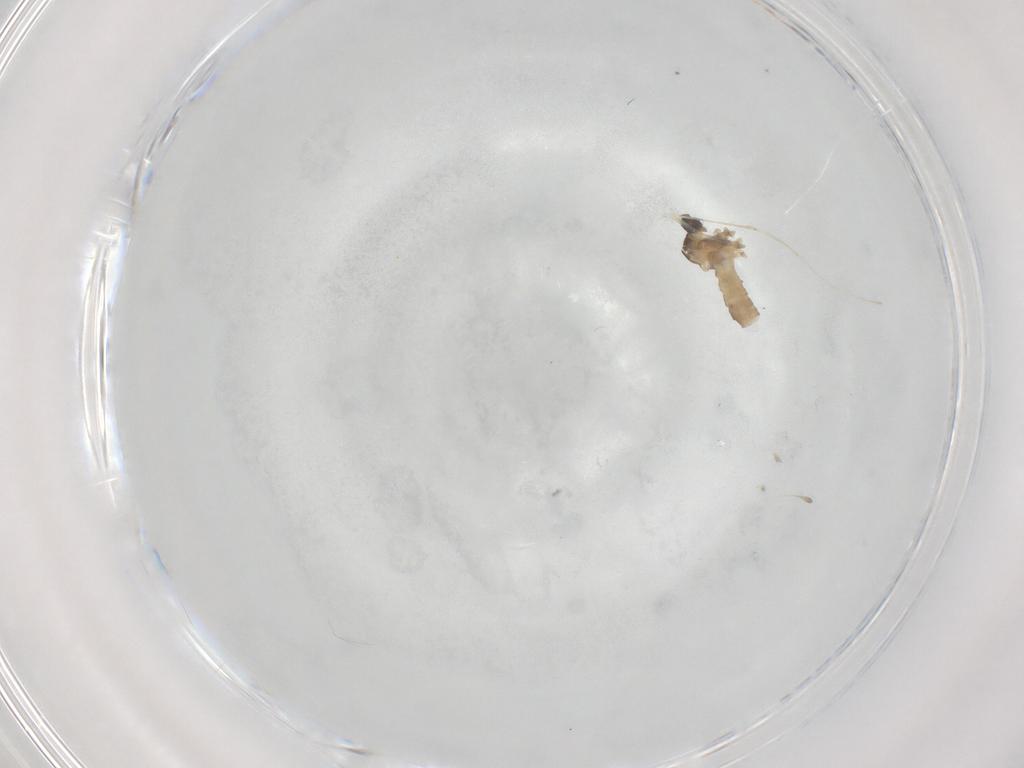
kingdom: Animalia
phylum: Arthropoda
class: Insecta
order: Diptera
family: Cecidomyiidae
